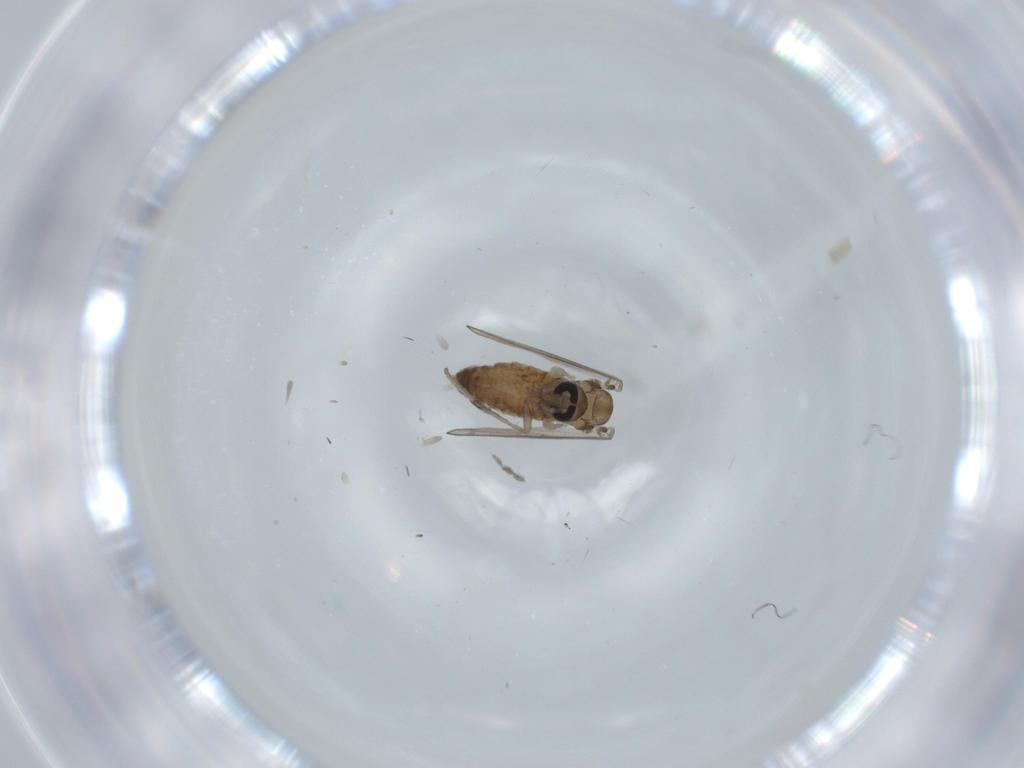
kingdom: Animalia
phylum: Arthropoda
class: Insecta
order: Diptera
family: Psychodidae
